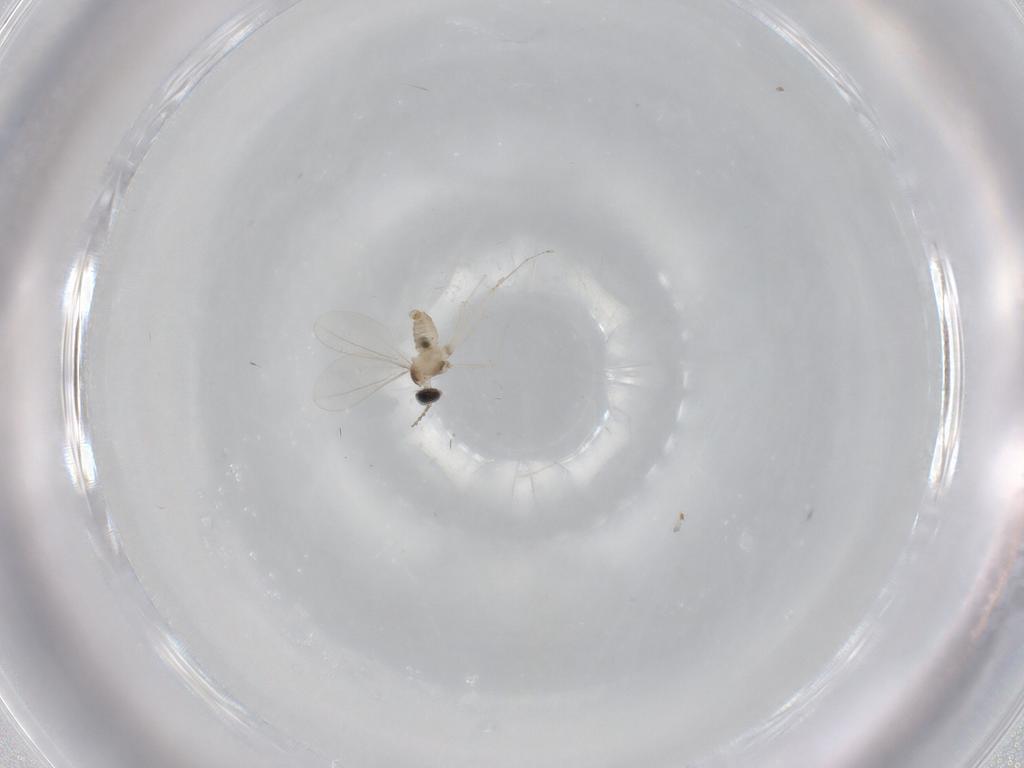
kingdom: Animalia
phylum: Arthropoda
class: Insecta
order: Diptera
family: Cecidomyiidae
